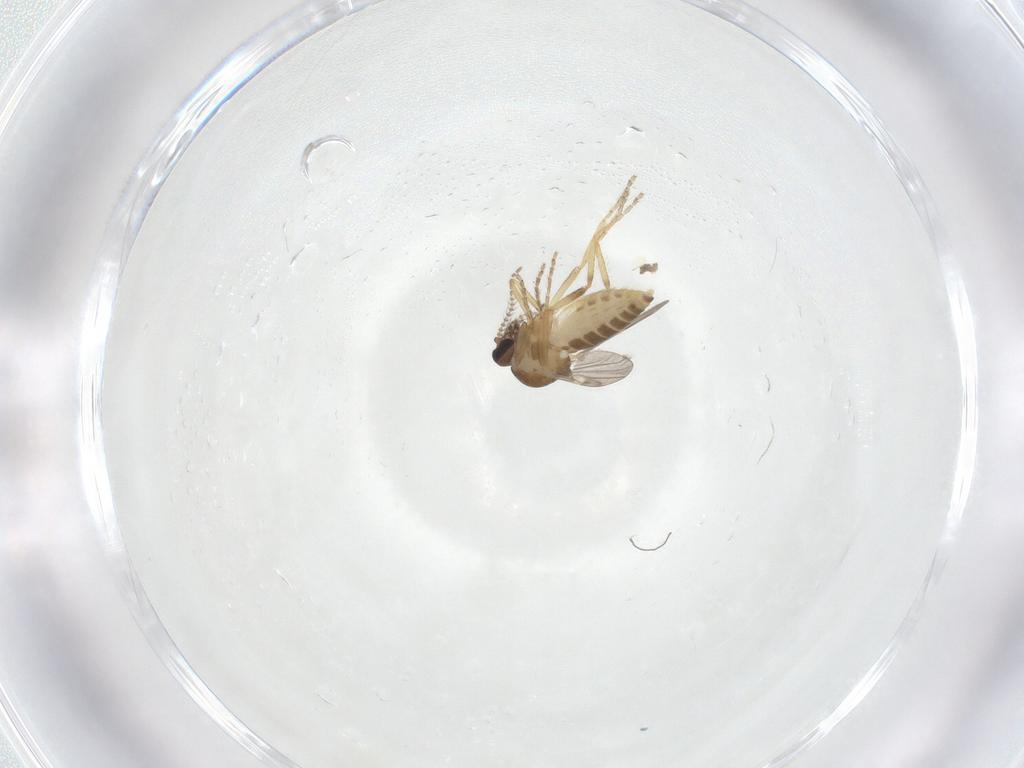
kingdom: Animalia
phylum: Arthropoda
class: Insecta
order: Diptera
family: Ceratopogonidae
